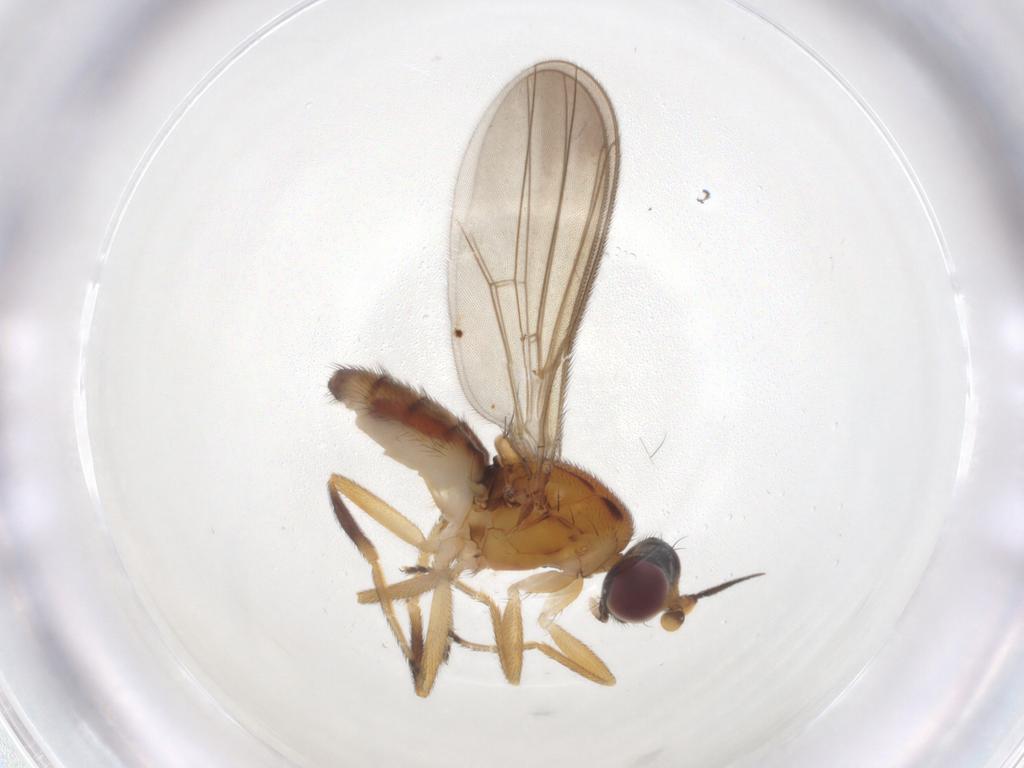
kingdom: Animalia
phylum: Arthropoda
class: Insecta
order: Diptera
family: Chloropidae
